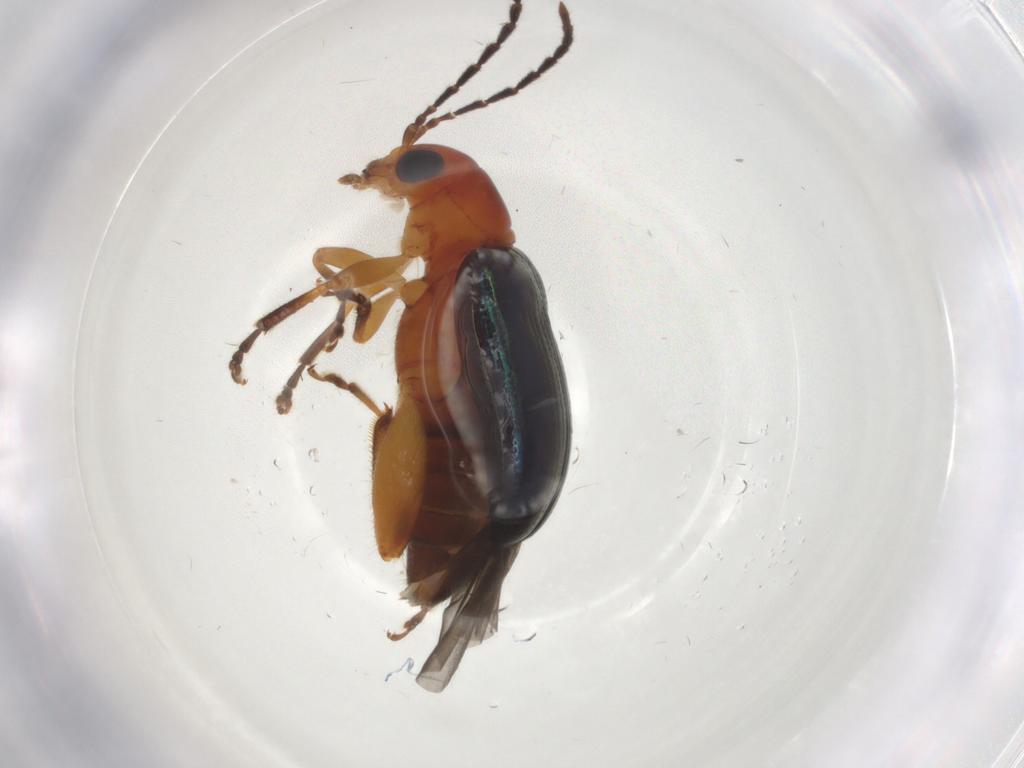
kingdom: Animalia
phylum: Arthropoda
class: Insecta
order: Coleoptera
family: Chrysomelidae
